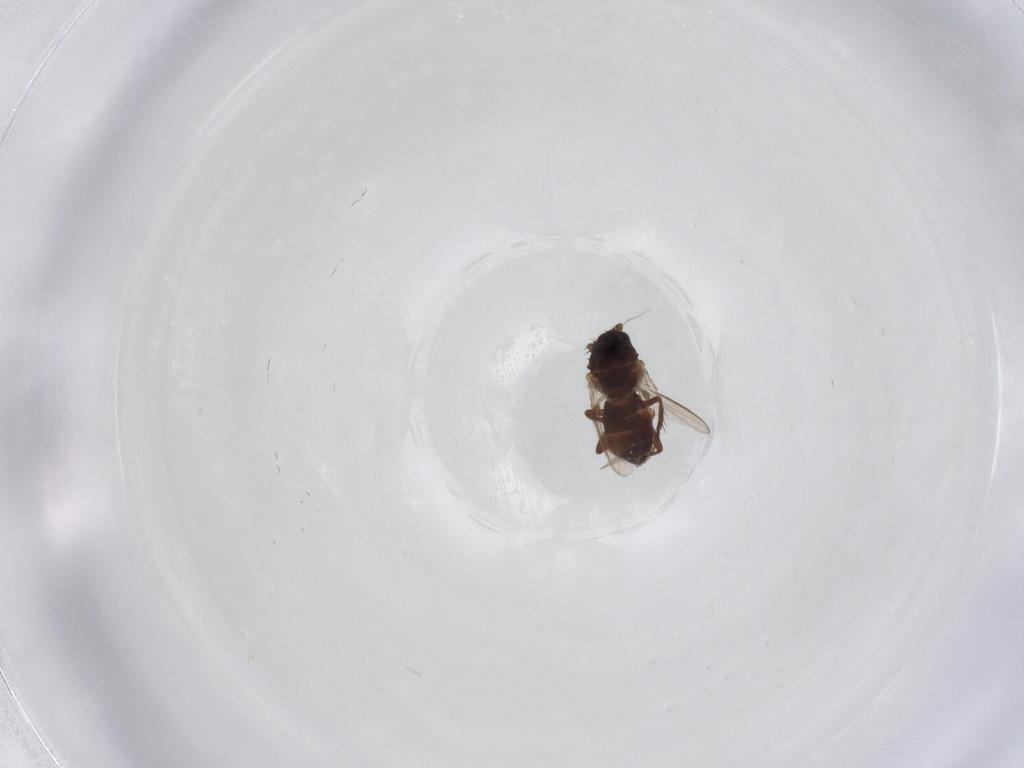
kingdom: Animalia
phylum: Arthropoda
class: Insecta
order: Diptera
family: Sphaeroceridae
